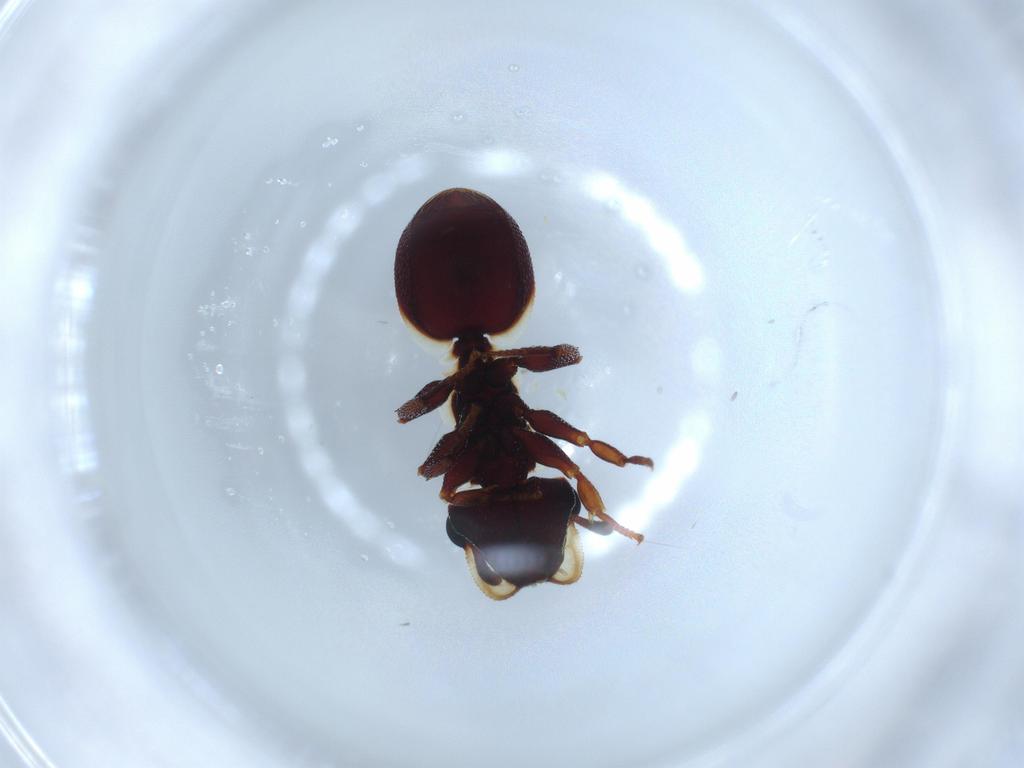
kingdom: Animalia
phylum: Arthropoda
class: Insecta
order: Hymenoptera
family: Formicidae
